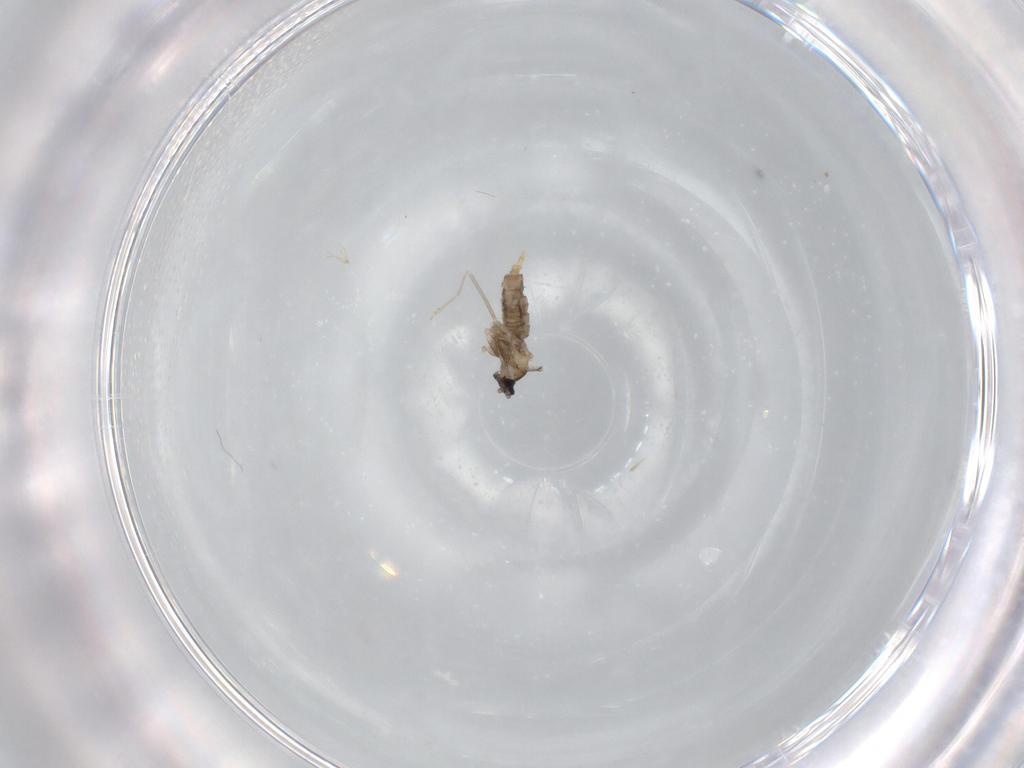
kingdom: Animalia
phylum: Arthropoda
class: Insecta
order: Diptera
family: Cecidomyiidae
